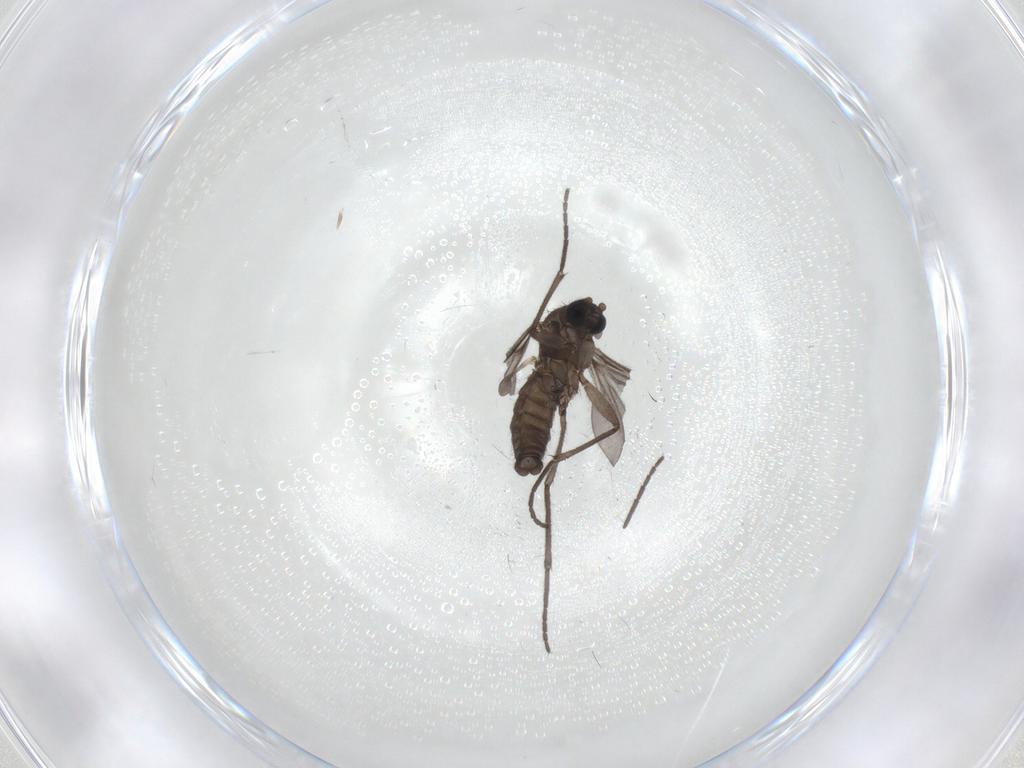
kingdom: Animalia
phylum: Arthropoda
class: Insecta
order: Diptera
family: Sciaridae
